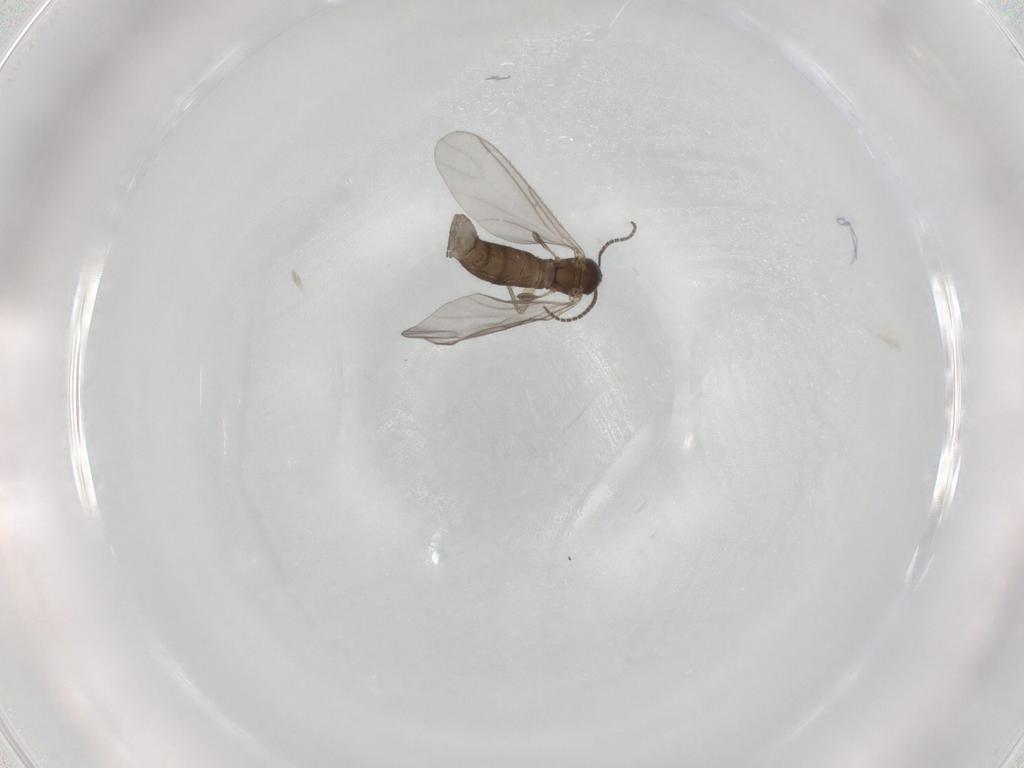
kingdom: Animalia
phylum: Arthropoda
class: Insecta
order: Diptera
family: Sciaridae
